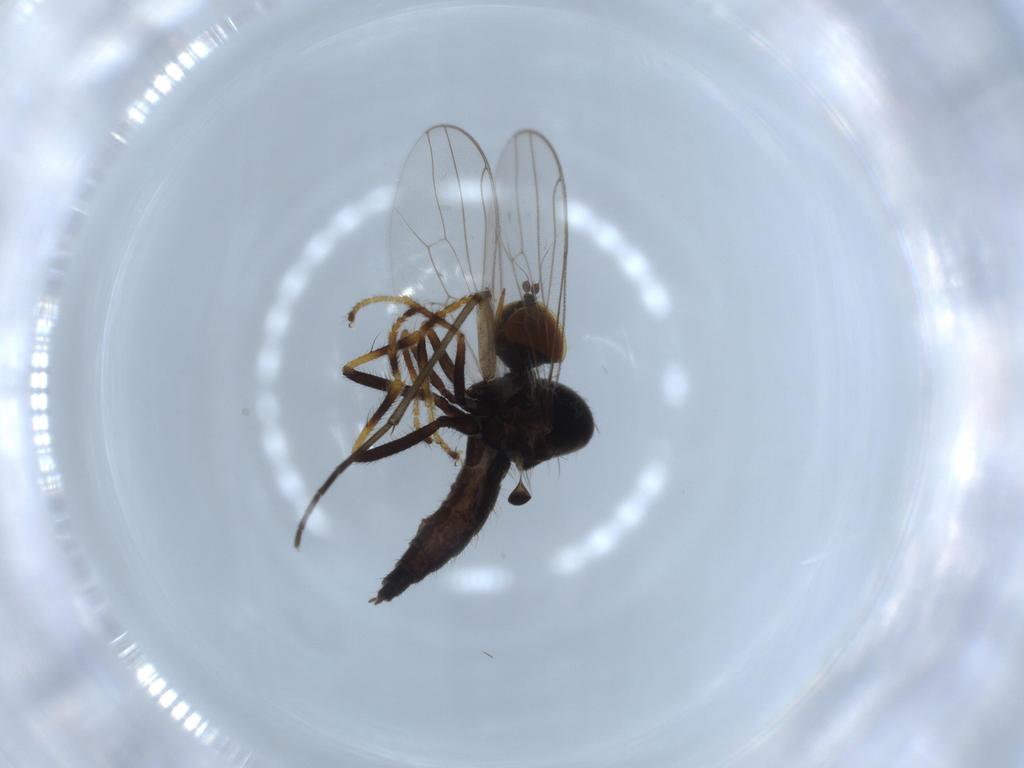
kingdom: Animalia
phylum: Arthropoda
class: Insecta
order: Diptera
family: Hybotidae
